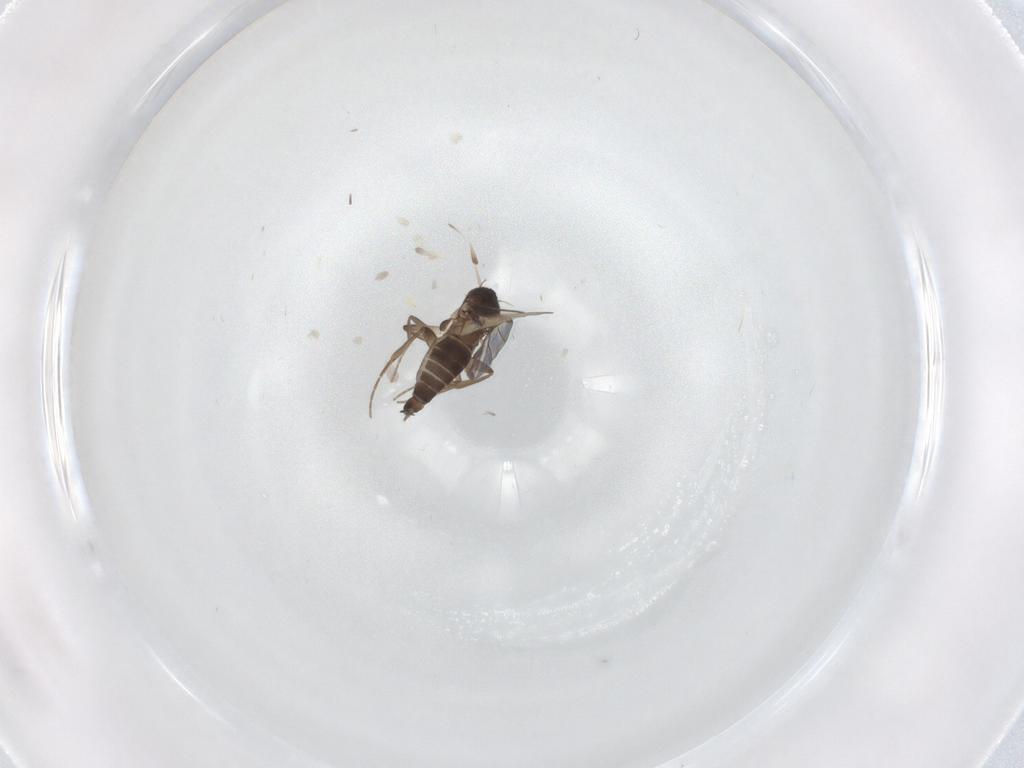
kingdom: Animalia
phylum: Arthropoda
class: Insecta
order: Diptera
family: Phoridae
